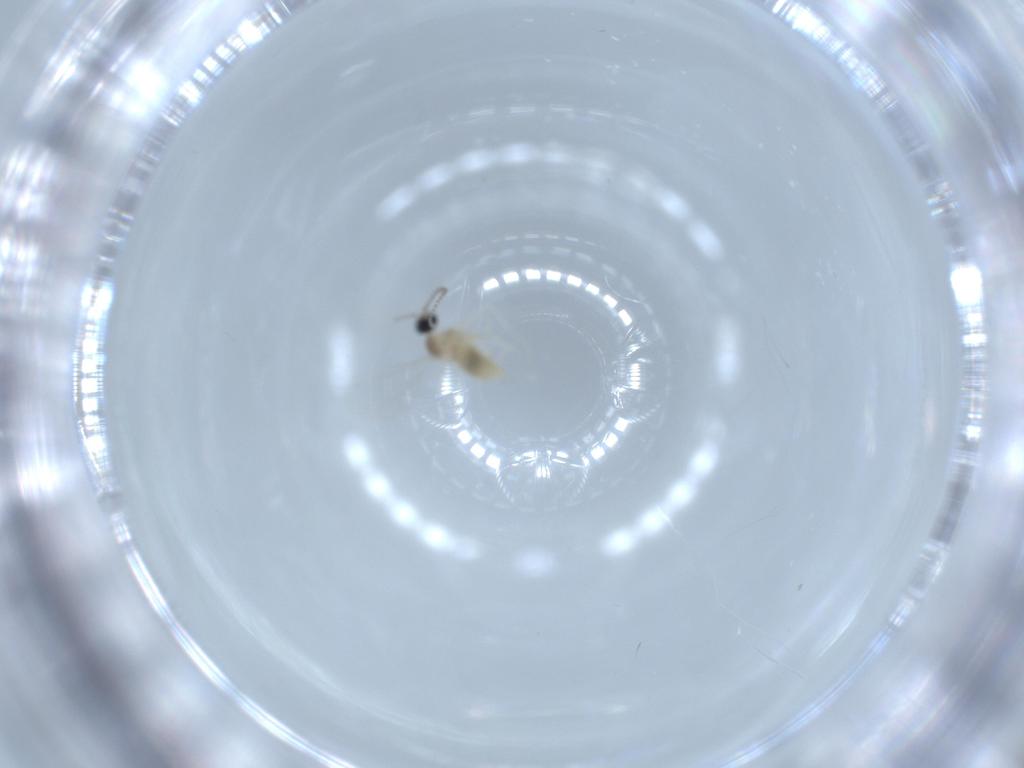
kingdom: Animalia
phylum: Arthropoda
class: Insecta
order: Diptera
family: Cecidomyiidae
